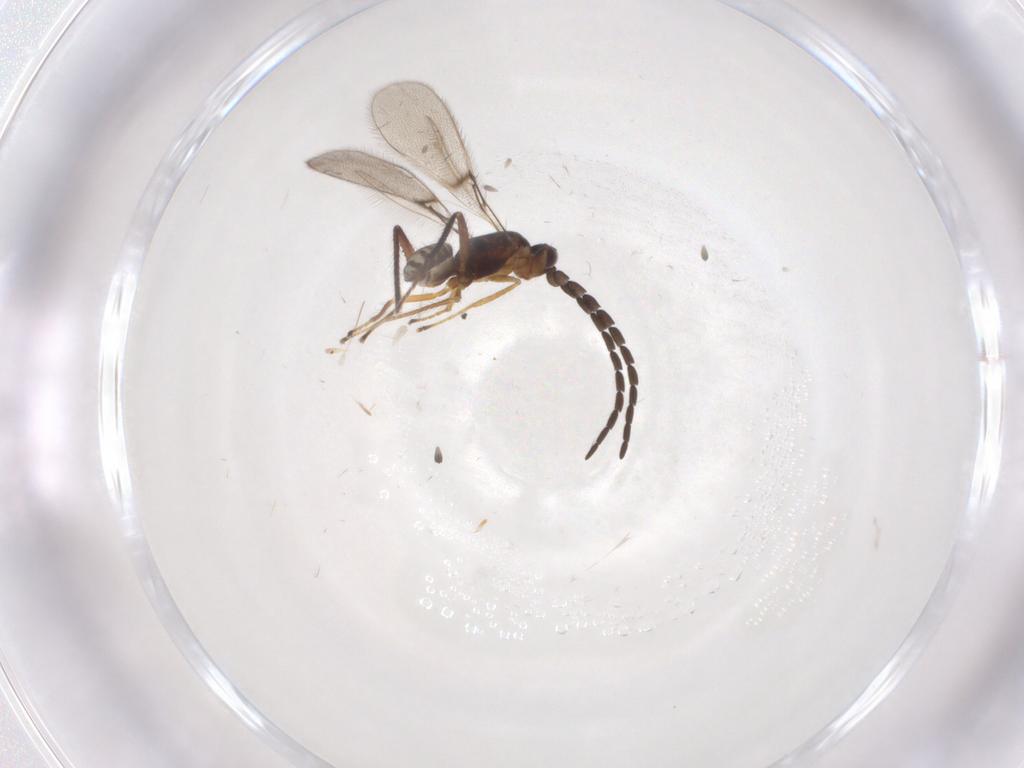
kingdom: Animalia
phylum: Arthropoda
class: Insecta
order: Hymenoptera
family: Mymaridae
